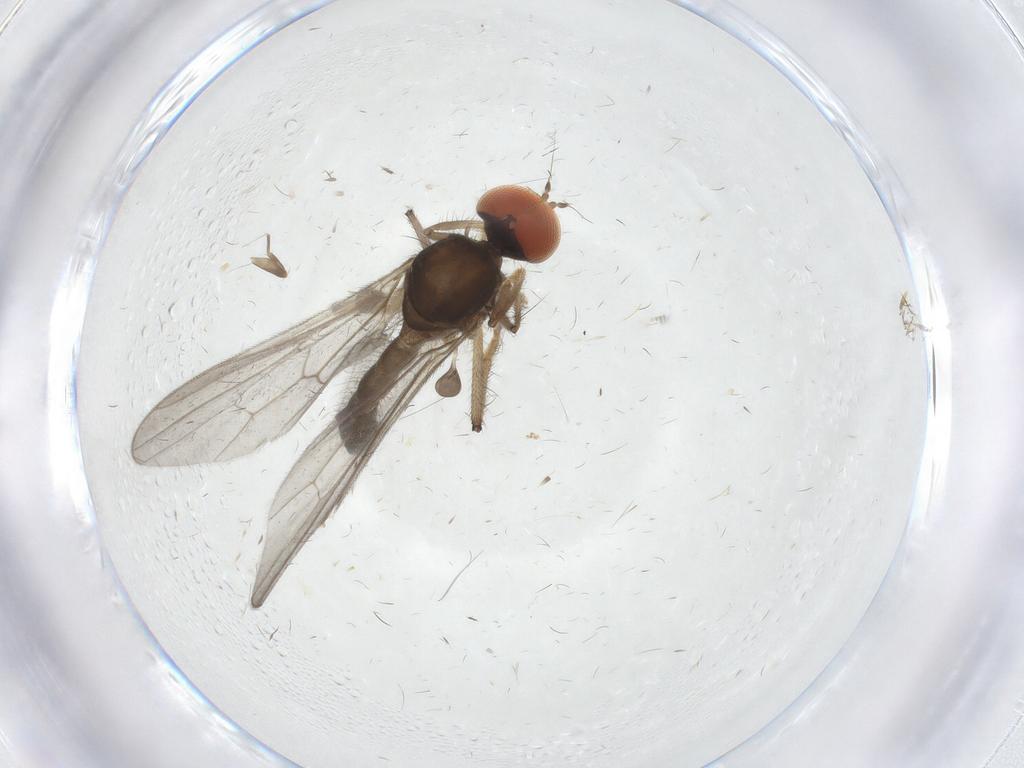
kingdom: Animalia
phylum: Arthropoda
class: Insecta
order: Diptera
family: Hybotidae
